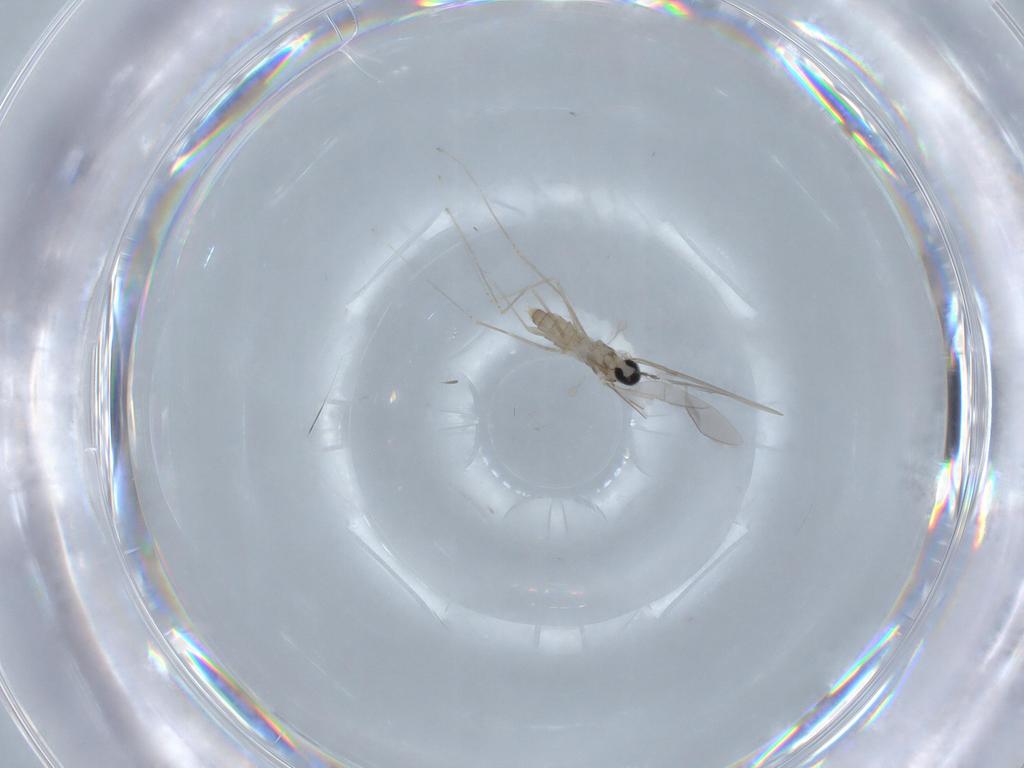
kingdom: Animalia
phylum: Arthropoda
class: Insecta
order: Diptera
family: Cecidomyiidae
